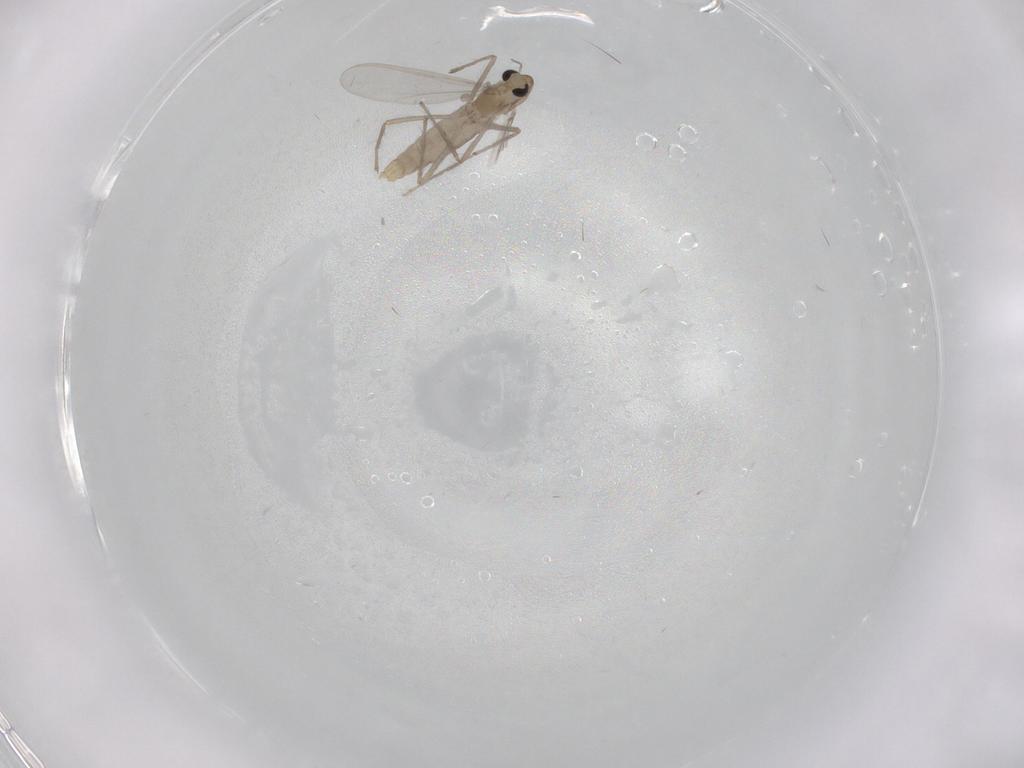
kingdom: Animalia
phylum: Arthropoda
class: Insecta
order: Diptera
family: Chironomidae
